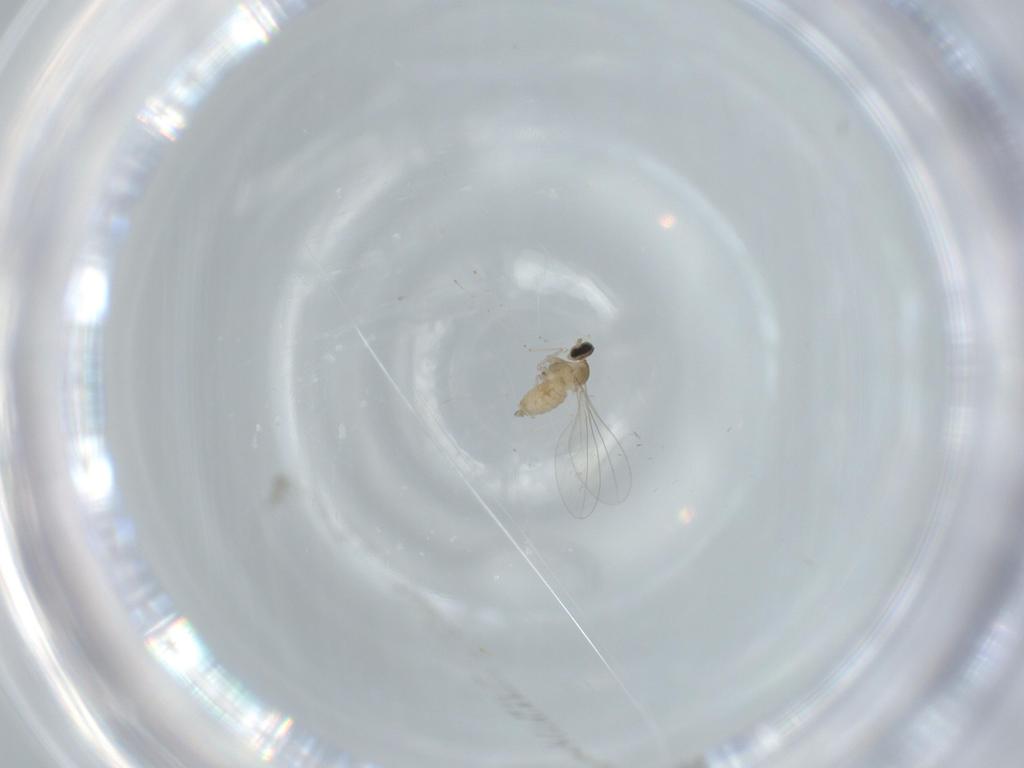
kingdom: Animalia
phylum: Arthropoda
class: Insecta
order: Diptera
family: Cecidomyiidae
